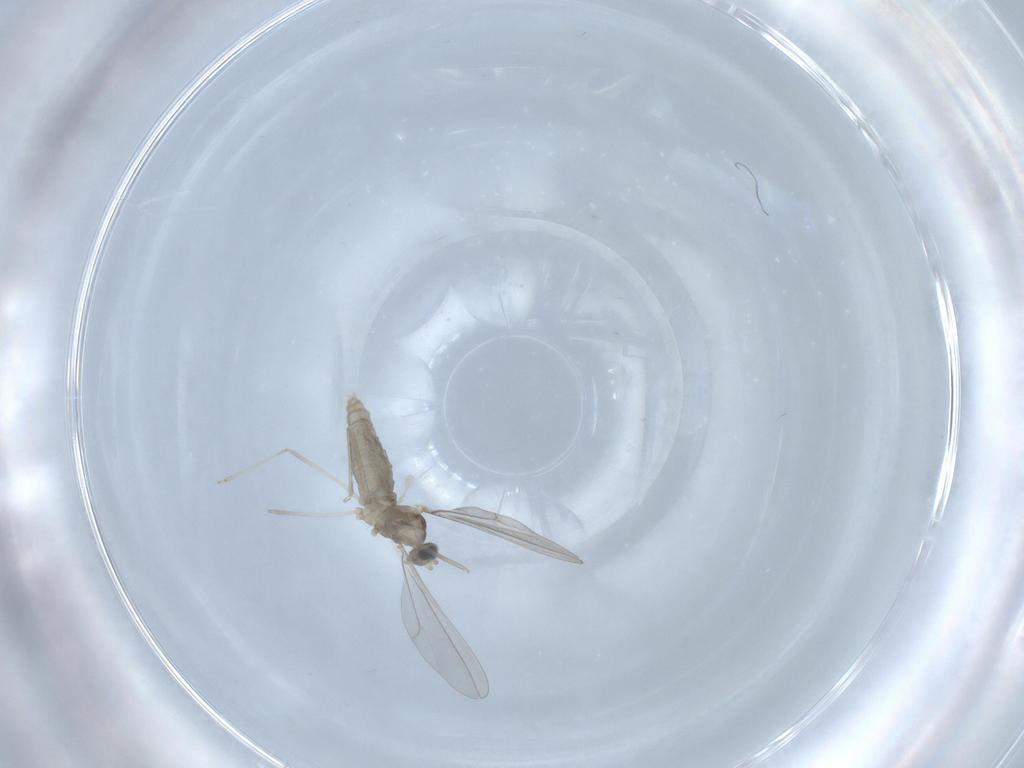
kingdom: Animalia
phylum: Arthropoda
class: Insecta
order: Diptera
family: Cecidomyiidae
